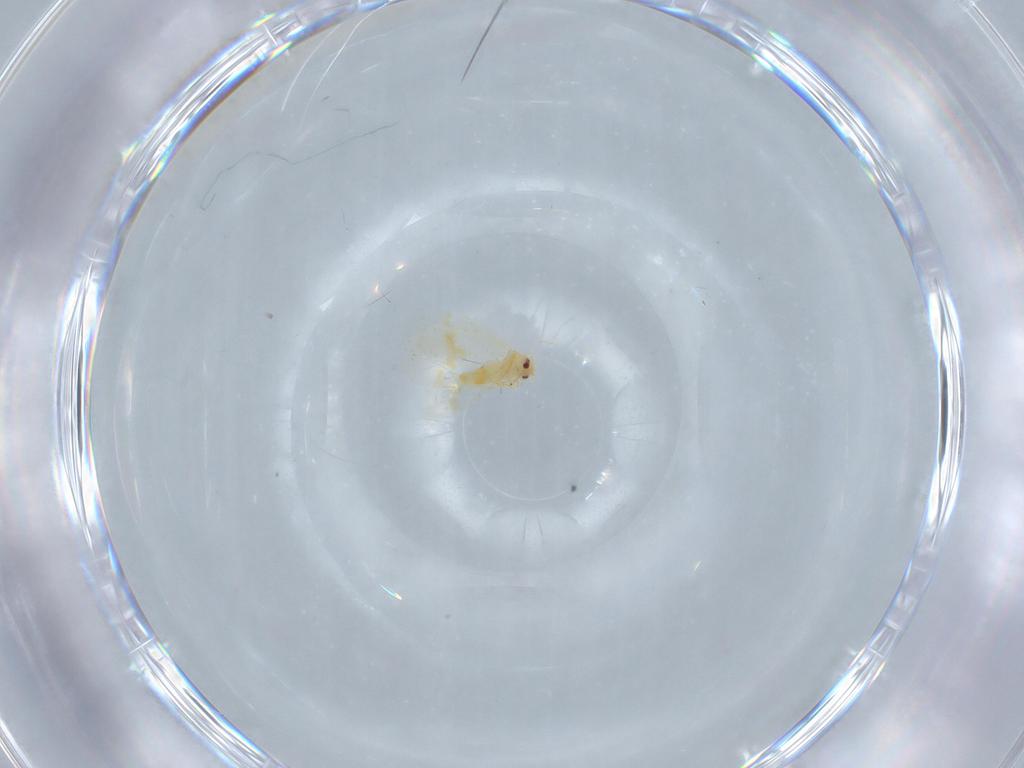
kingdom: Animalia
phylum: Arthropoda
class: Insecta
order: Hemiptera
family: Aleyrodidae
